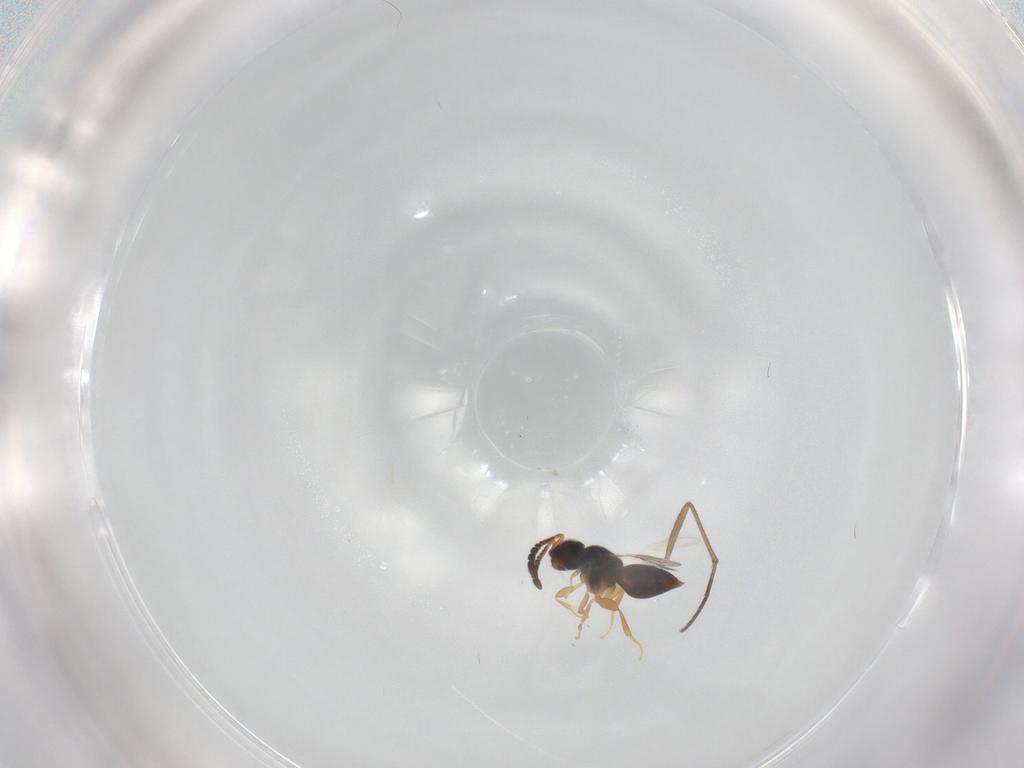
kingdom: Animalia
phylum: Arthropoda
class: Insecta
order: Hymenoptera
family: Trichogrammatidae
